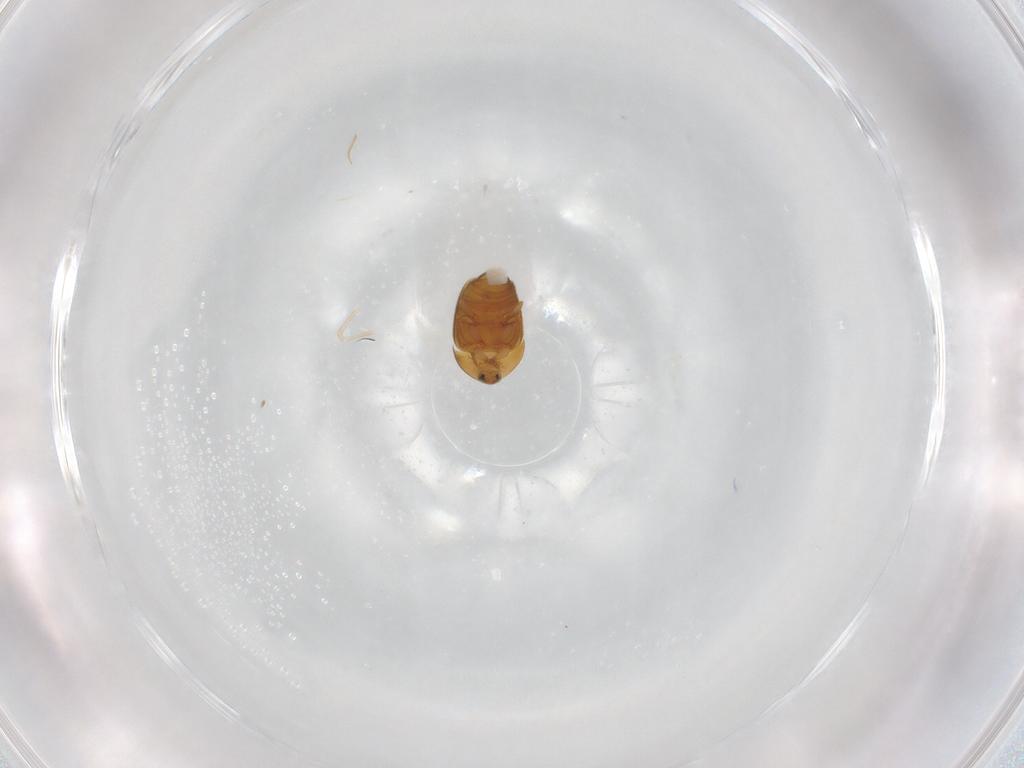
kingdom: Animalia
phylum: Arthropoda
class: Insecta
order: Coleoptera
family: Corylophidae
